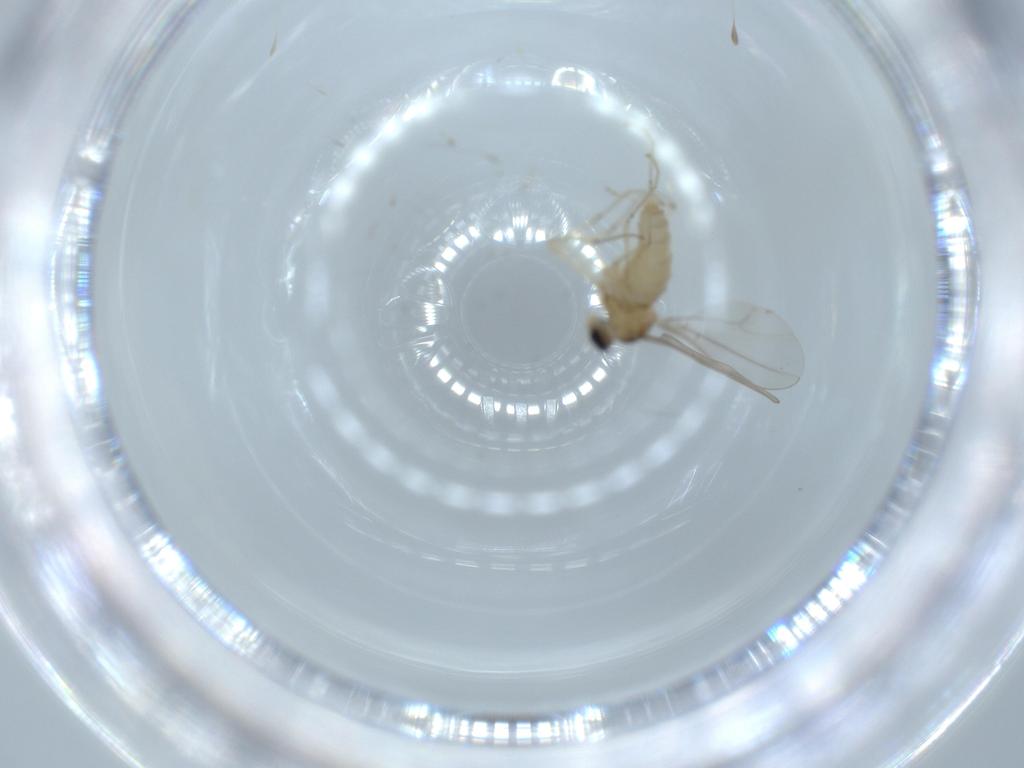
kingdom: Animalia
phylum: Arthropoda
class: Insecta
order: Diptera
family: Cecidomyiidae
